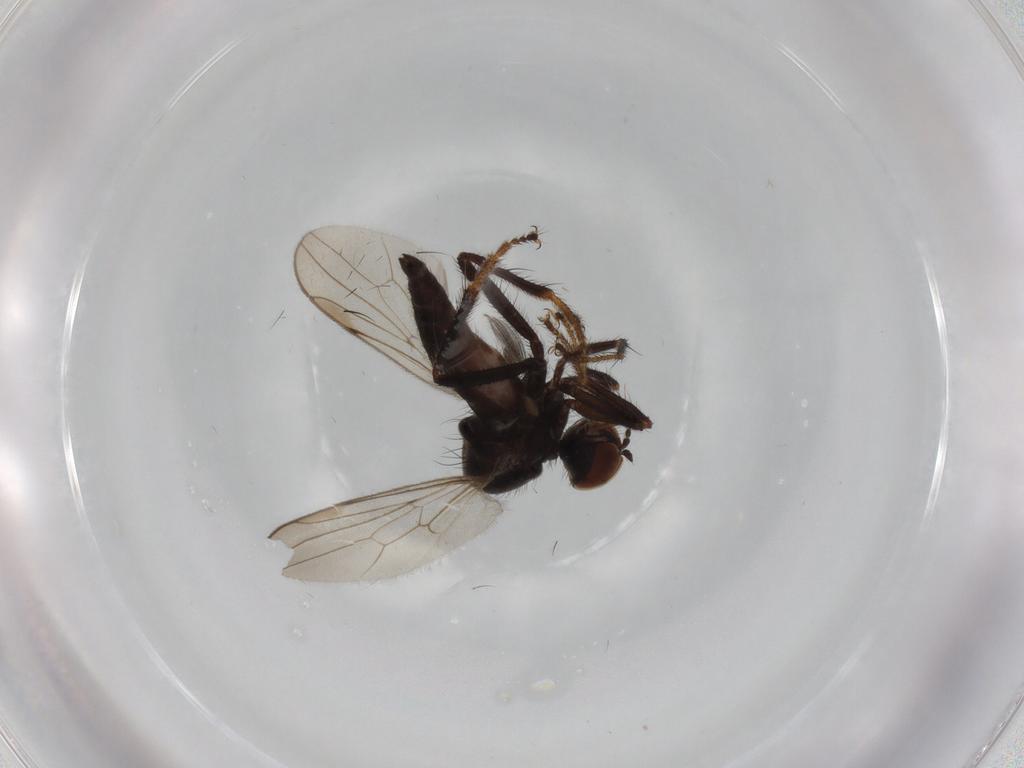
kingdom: Animalia
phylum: Arthropoda
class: Insecta
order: Diptera
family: Hybotidae
